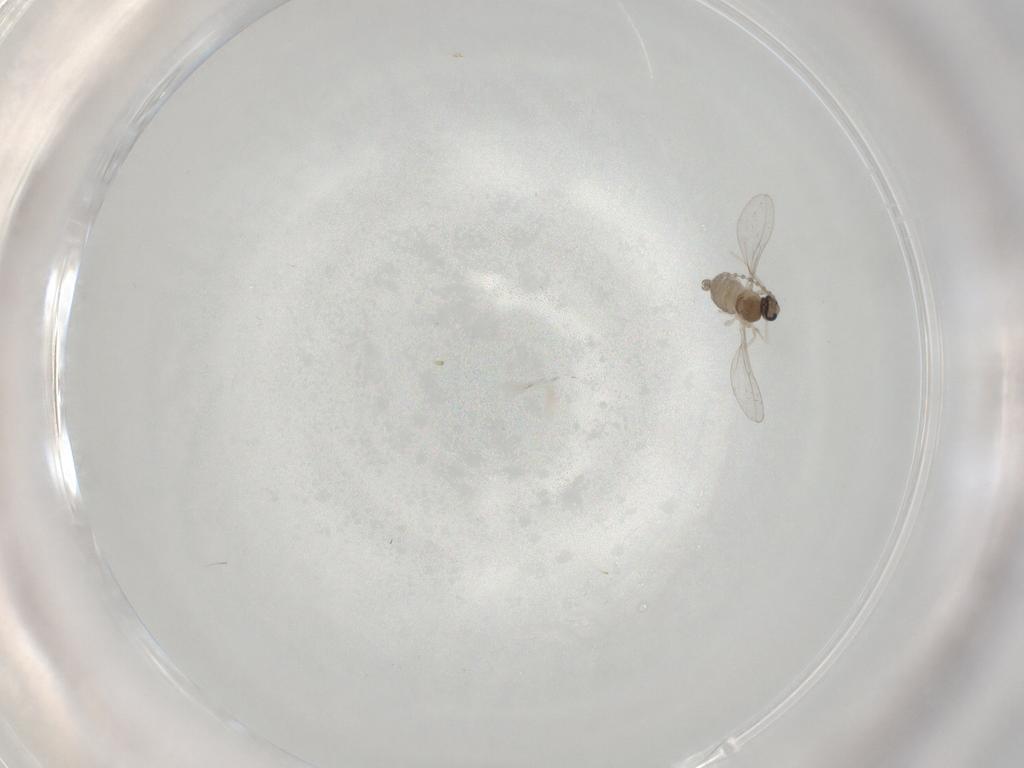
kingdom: Animalia
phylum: Arthropoda
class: Insecta
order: Diptera
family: Cecidomyiidae
